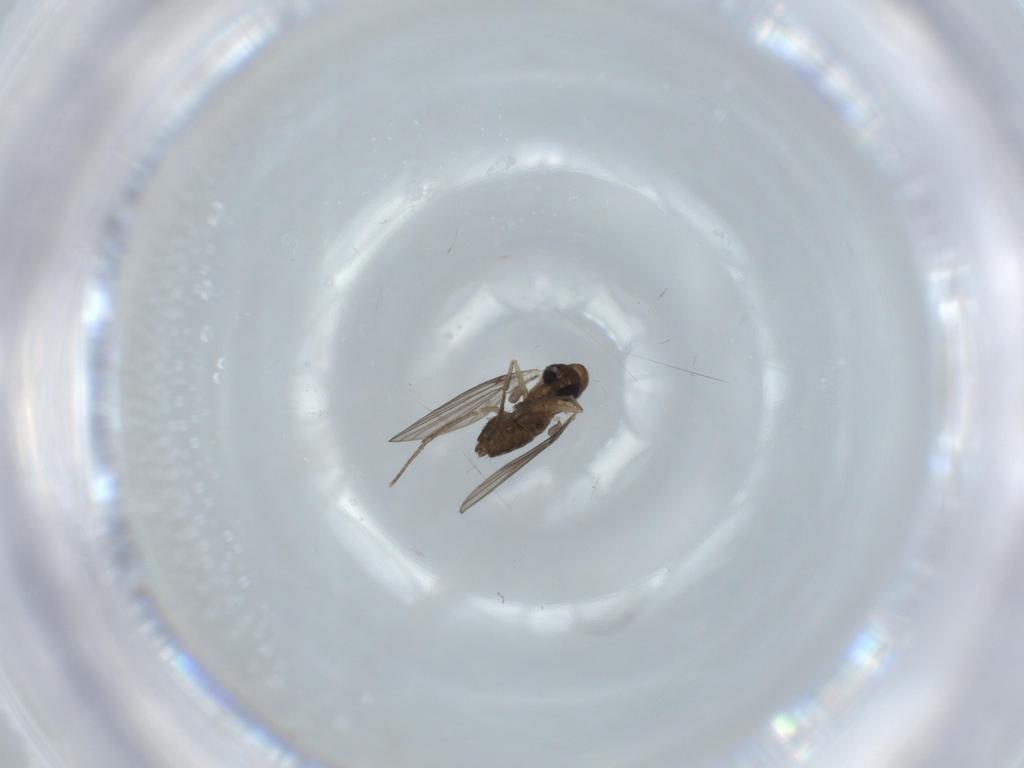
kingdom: Animalia
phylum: Arthropoda
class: Insecta
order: Diptera
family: Psychodidae
